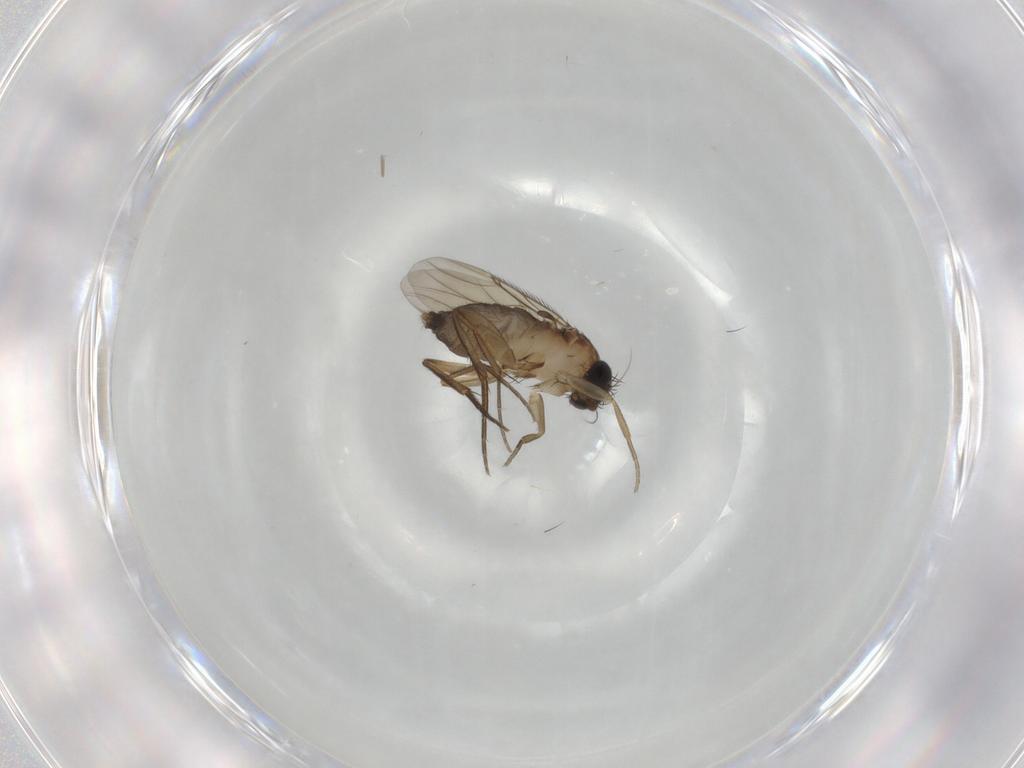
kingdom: Animalia
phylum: Arthropoda
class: Insecta
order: Diptera
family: Phoridae
